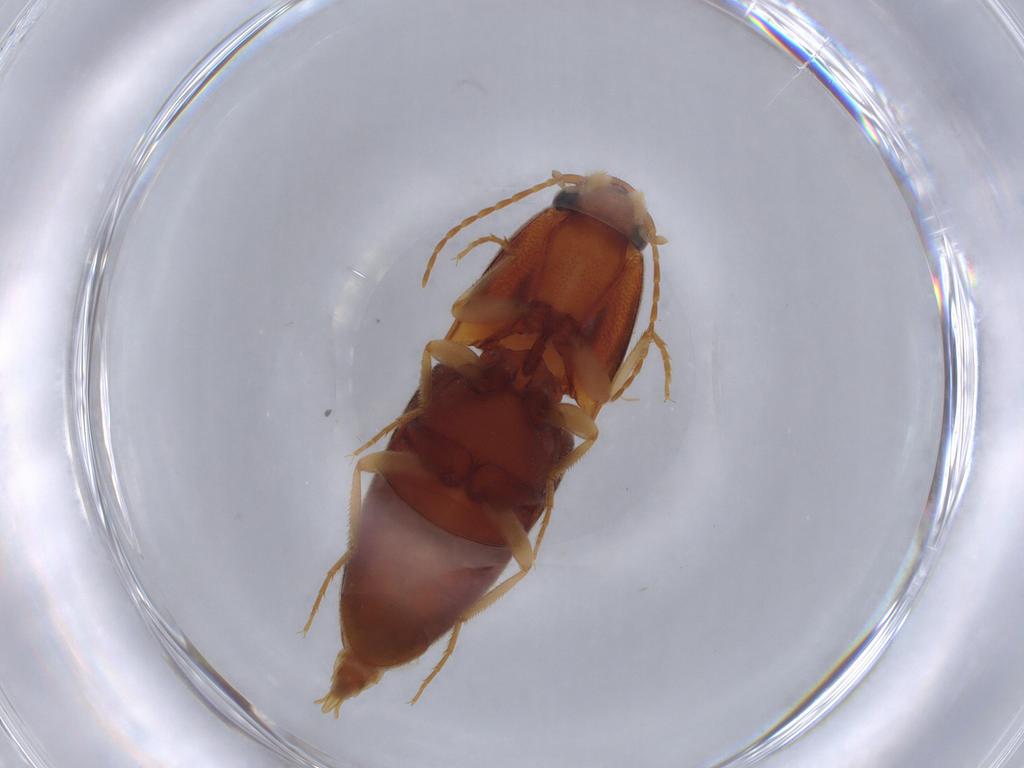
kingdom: Animalia
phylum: Arthropoda
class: Insecta
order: Coleoptera
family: Elateridae
